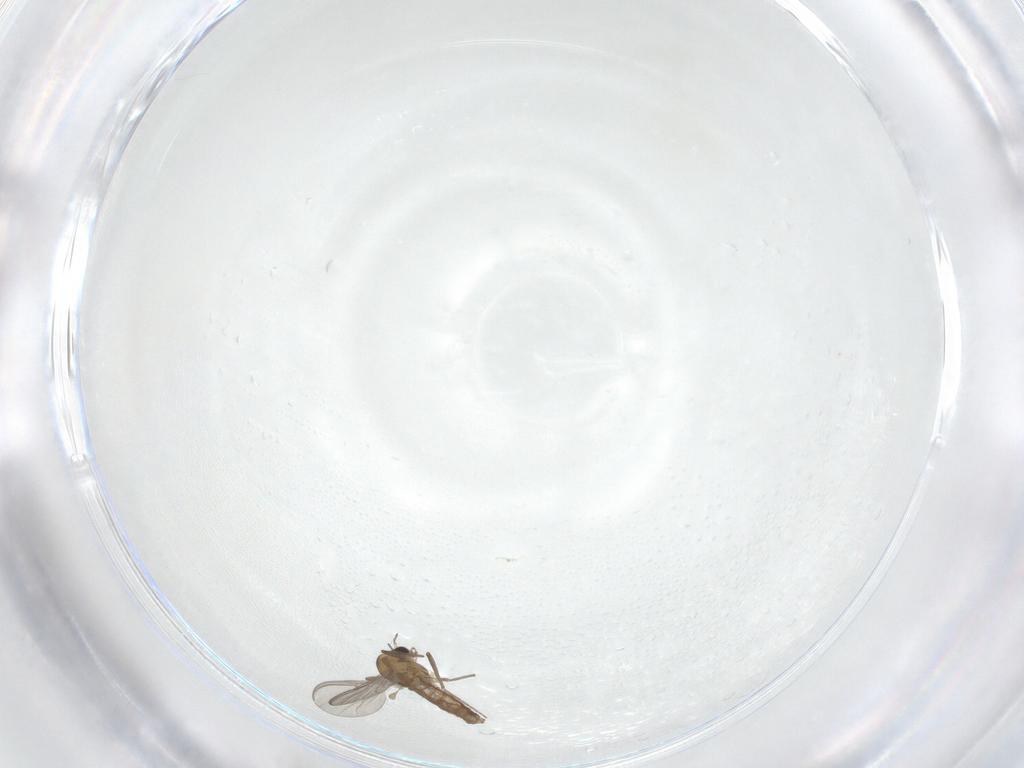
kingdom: Animalia
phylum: Arthropoda
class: Insecta
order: Diptera
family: Chironomidae
